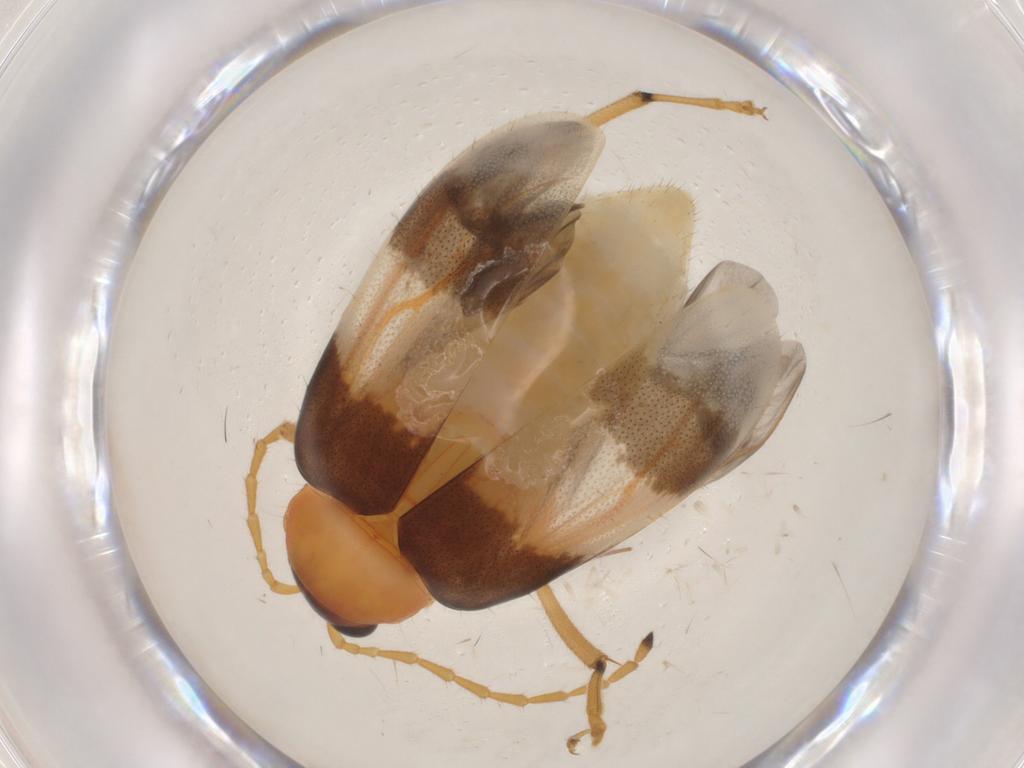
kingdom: Animalia
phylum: Arthropoda
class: Insecta
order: Coleoptera
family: Chrysomelidae
